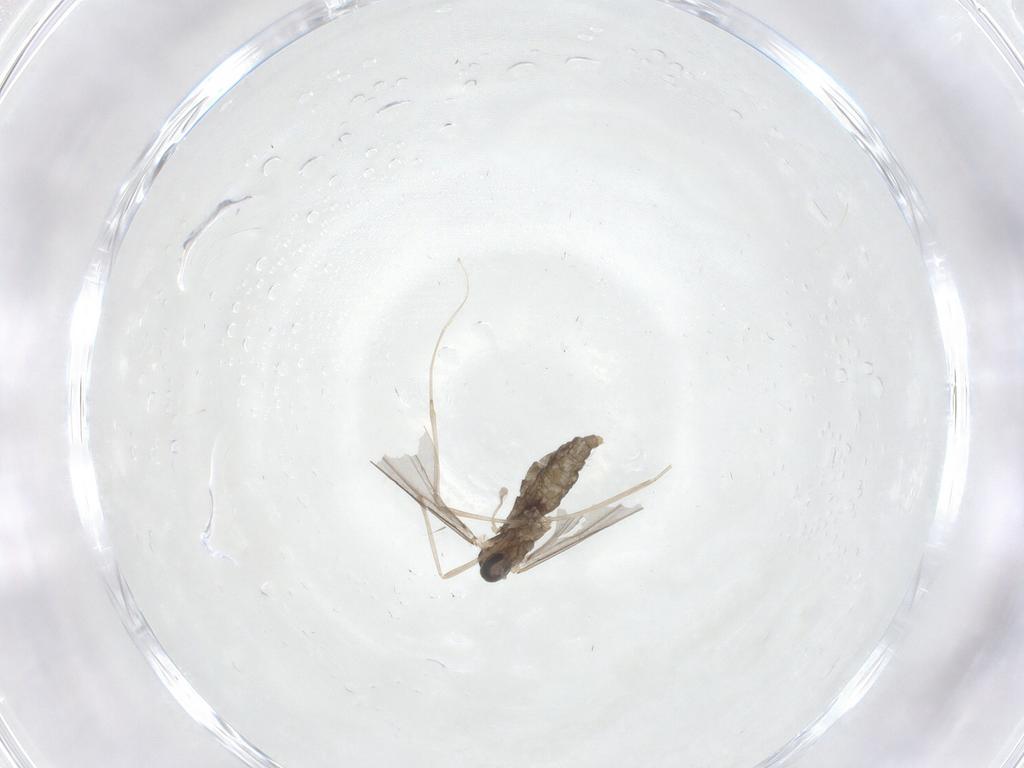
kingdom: Animalia
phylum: Arthropoda
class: Insecta
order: Diptera
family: Cecidomyiidae
